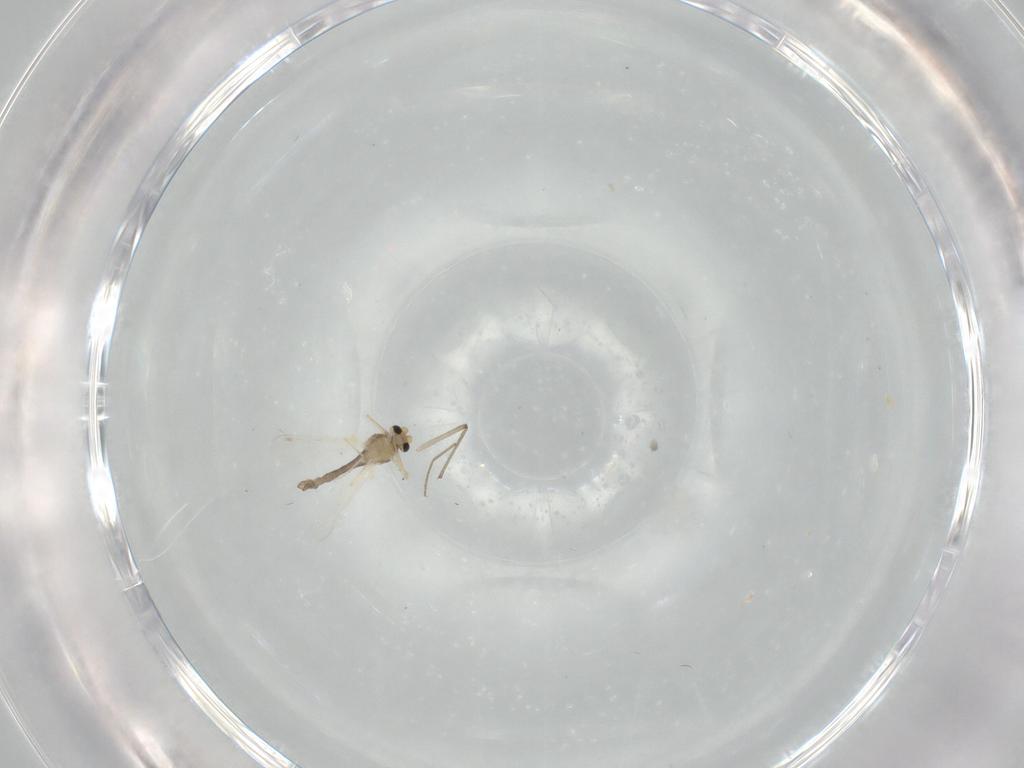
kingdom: Animalia
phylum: Arthropoda
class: Insecta
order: Diptera
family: Chironomidae
